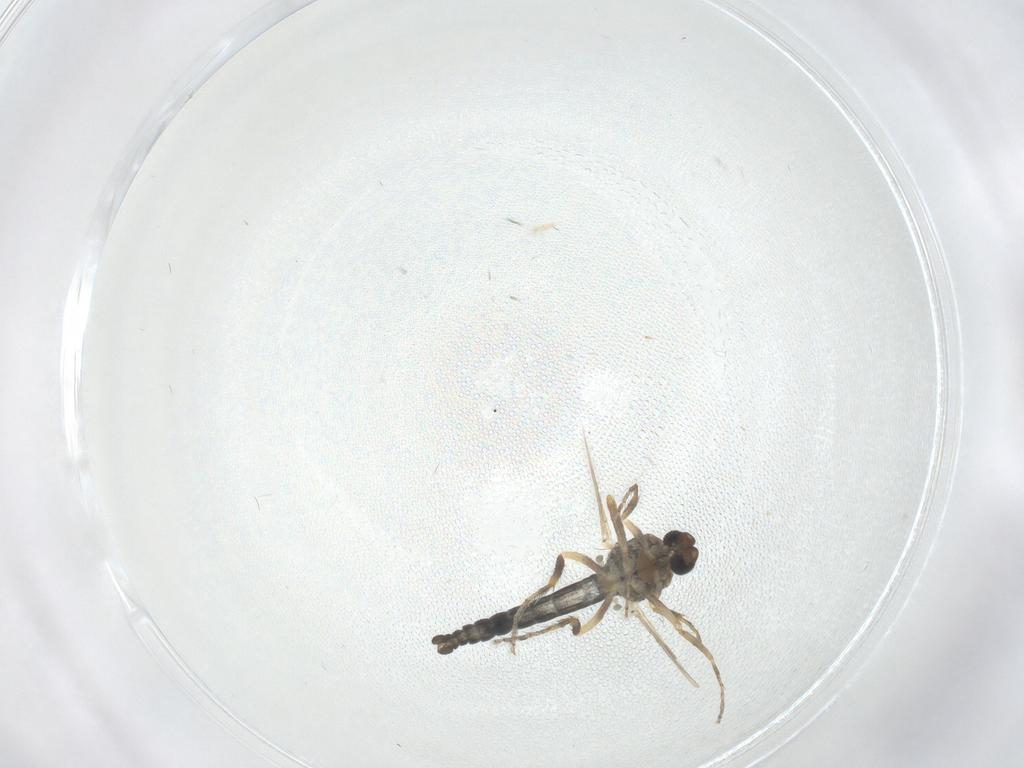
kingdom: Animalia
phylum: Arthropoda
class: Insecta
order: Diptera
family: Ceratopogonidae
